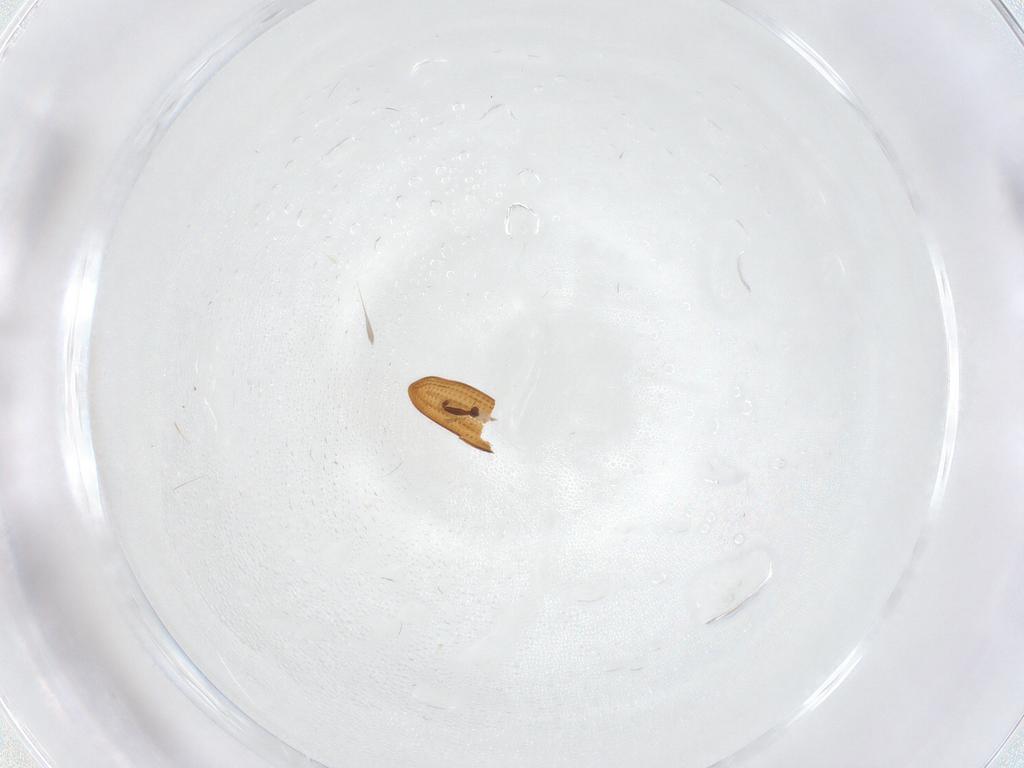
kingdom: Animalia
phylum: Arthropoda
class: Insecta
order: Coleoptera
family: Latridiidae
